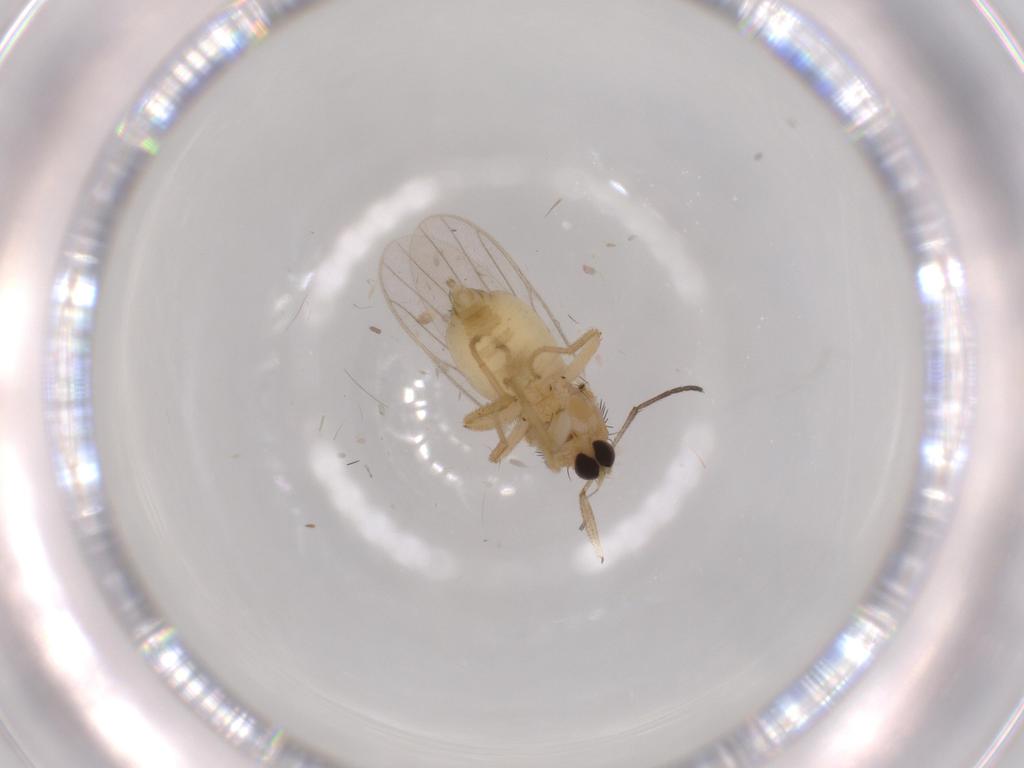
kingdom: Animalia
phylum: Arthropoda
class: Insecta
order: Diptera
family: Hybotidae
